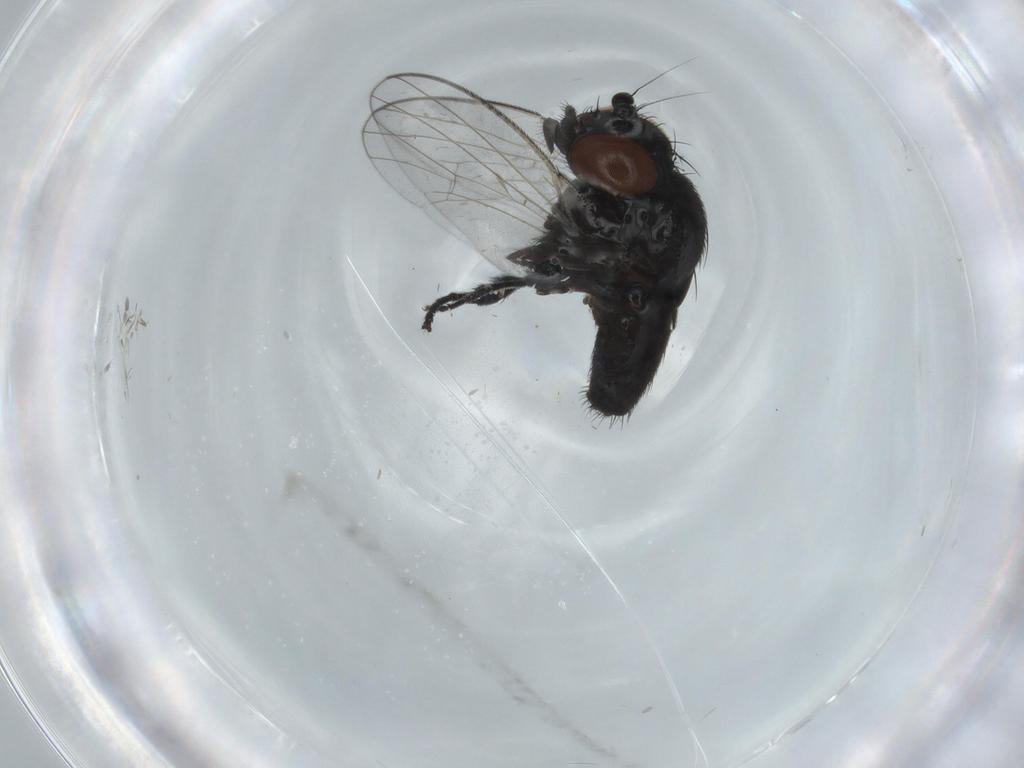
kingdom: Animalia
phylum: Arthropoda
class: Insecta
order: Diptera
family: Milichiidae
